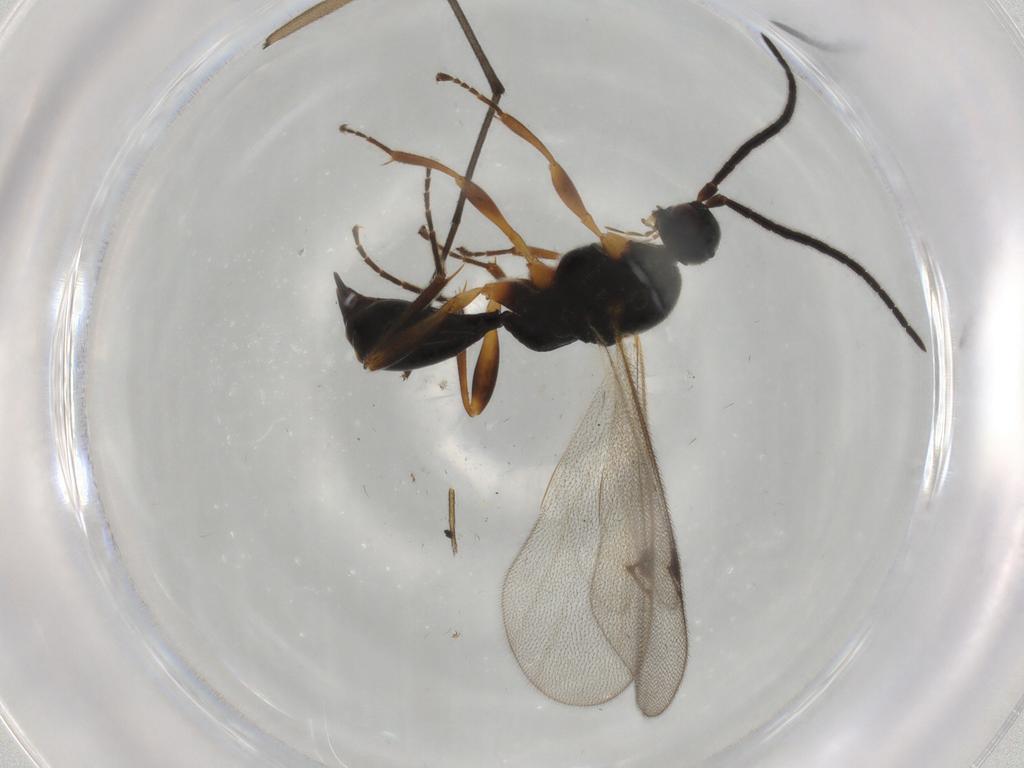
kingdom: Animalia
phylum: Arthropoda
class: Insecta
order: Hymenoptera
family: Proctotrupidae
